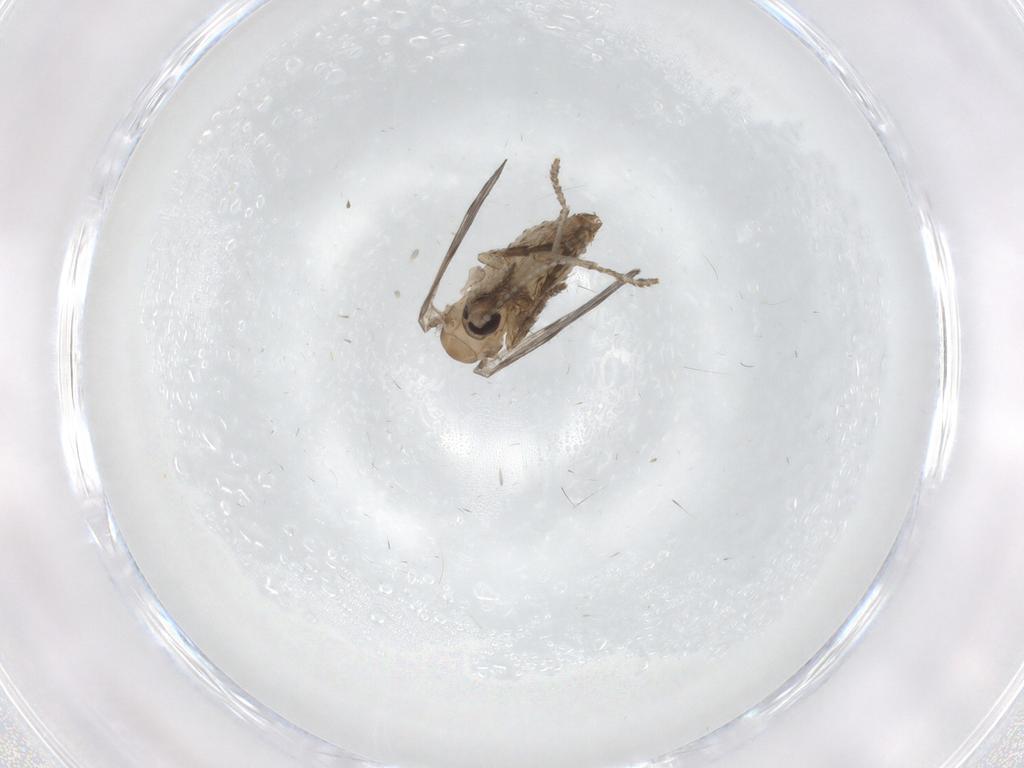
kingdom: Animalia
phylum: Arthropoda
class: Insecta
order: Diptera
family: Psychodidae
